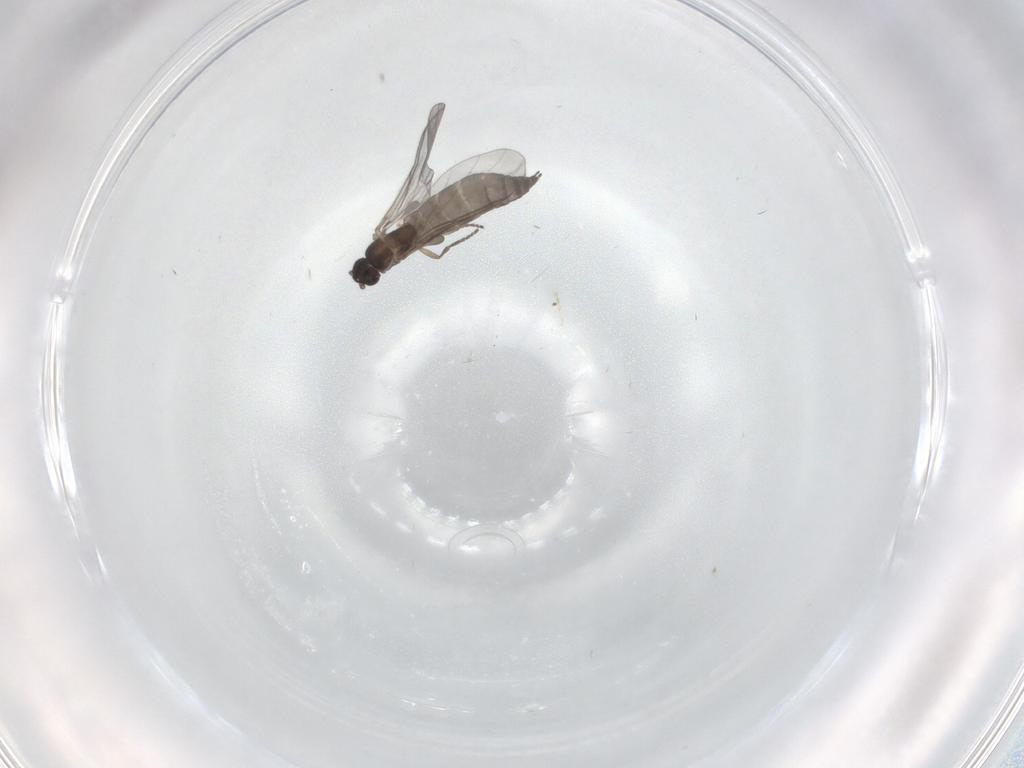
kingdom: Animalia
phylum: Arthropoda
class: Insecta
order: Diptera
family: Sciaridae
